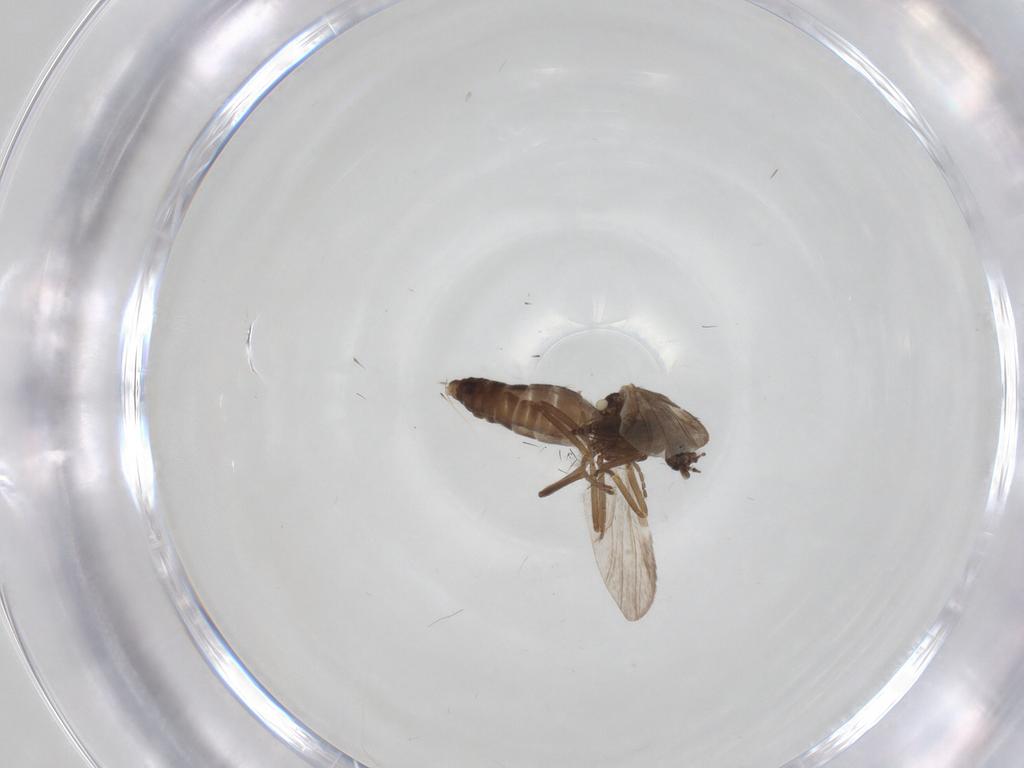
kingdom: Animalia
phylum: Arthropoda
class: Insecta
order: Diptera
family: Ceratopogonidae
